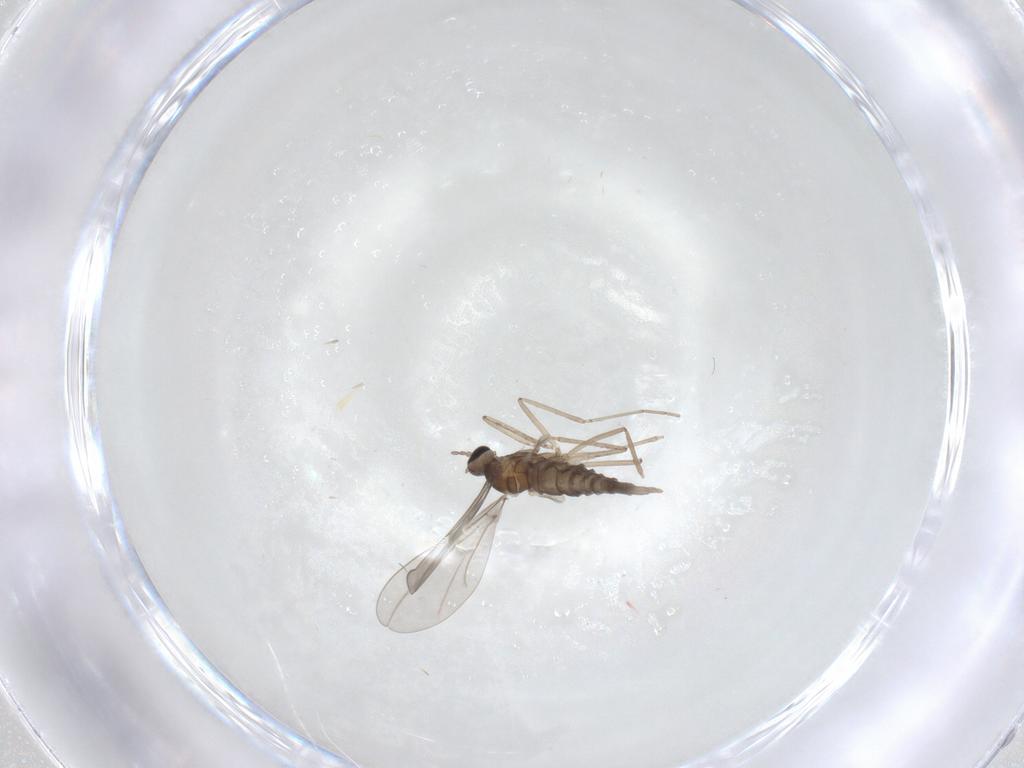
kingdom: Animalia
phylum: Arthropoda
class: Insecta
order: Diptera
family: Cecidomyiidae
